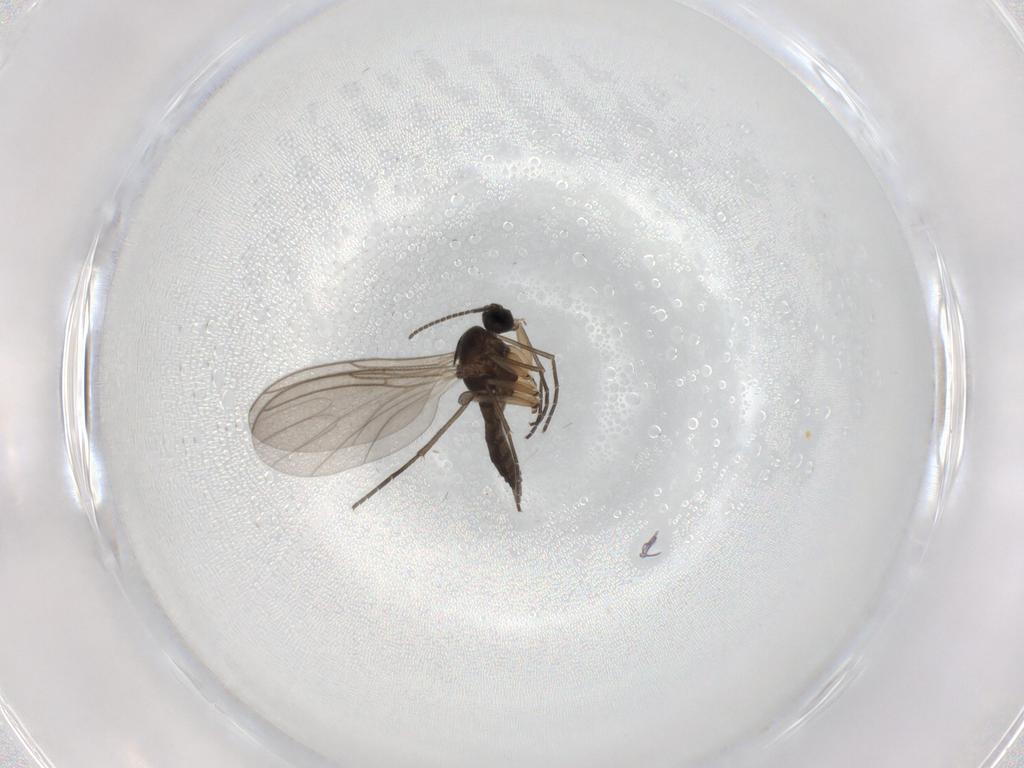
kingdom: Animalia
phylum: Arthropoda
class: Insecta
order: Diptera
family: Sciaridae
